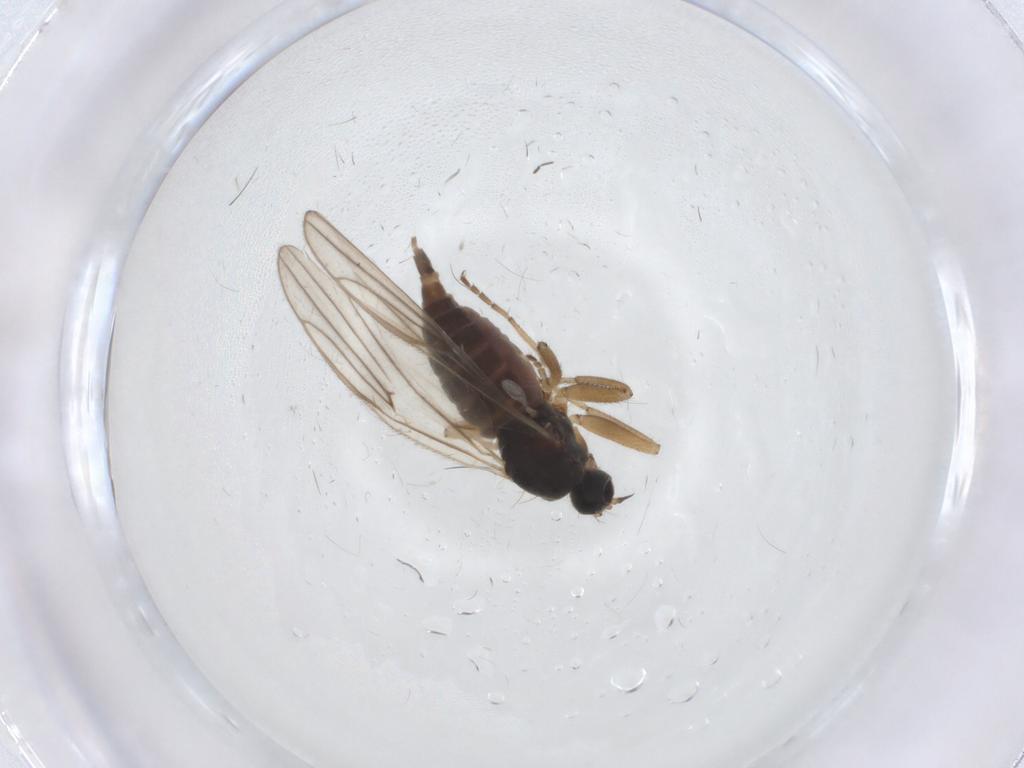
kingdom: Animalia
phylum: Arthropoda
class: Insecta
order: Diptera
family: Hybotidae
